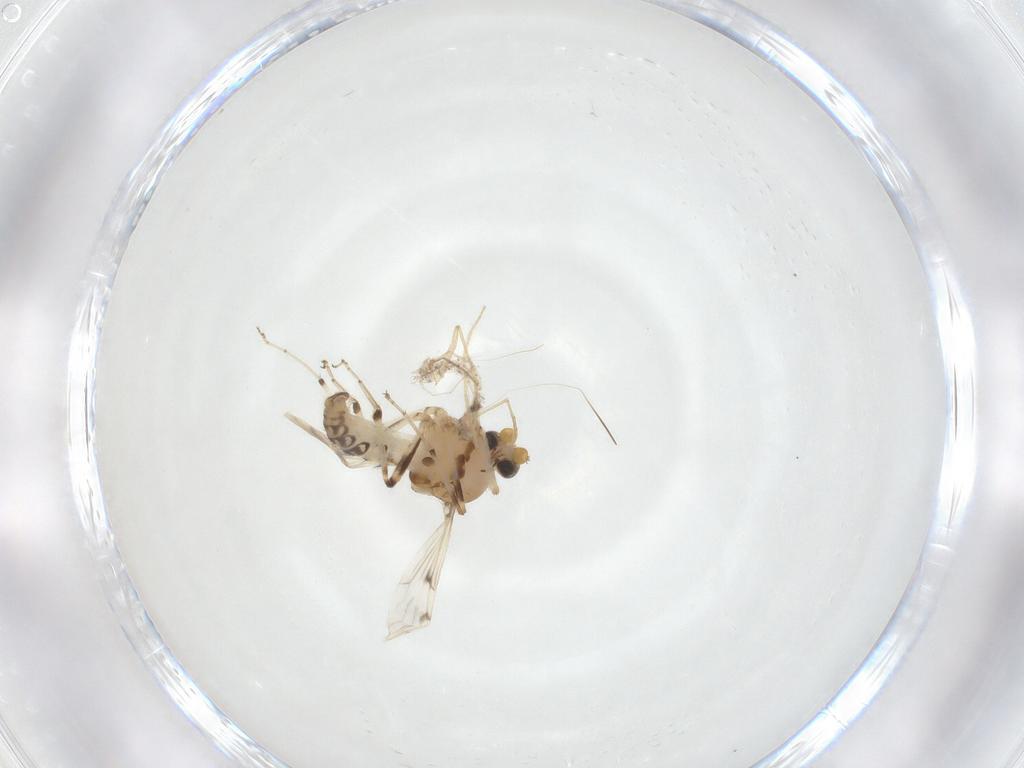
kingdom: Animalia
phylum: Arthropoda
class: Insecta
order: Diptera
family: Ceratopogonidae
